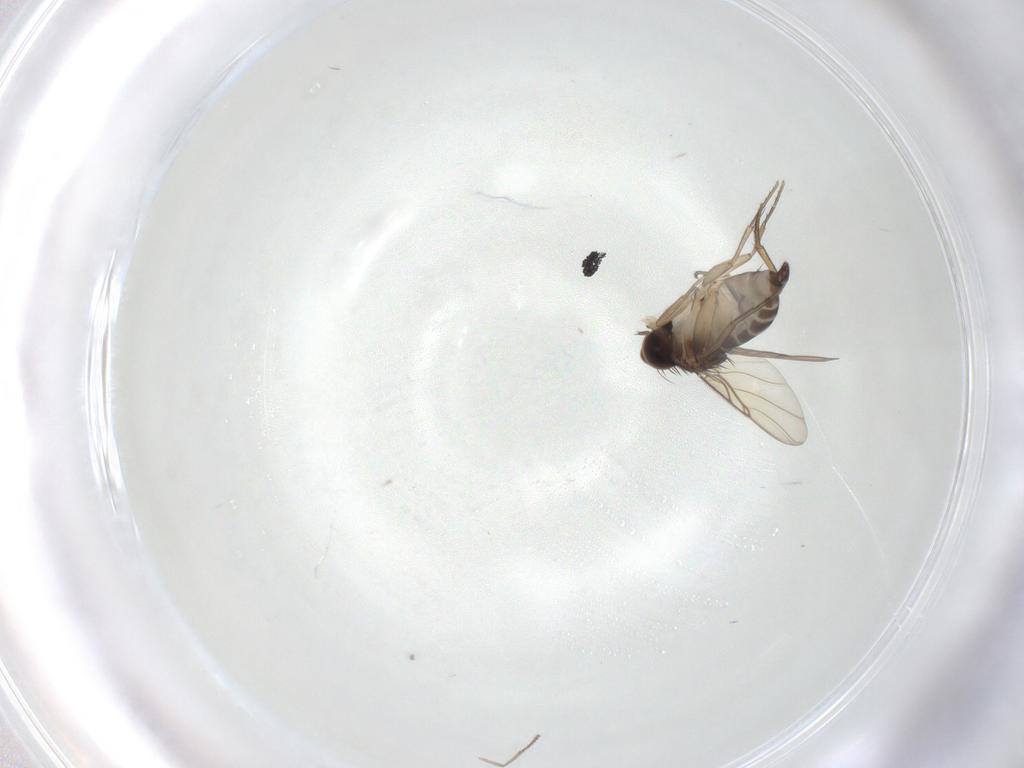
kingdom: Animalia
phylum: Arthropoda
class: Insecta
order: Diptera
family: Phoridae
